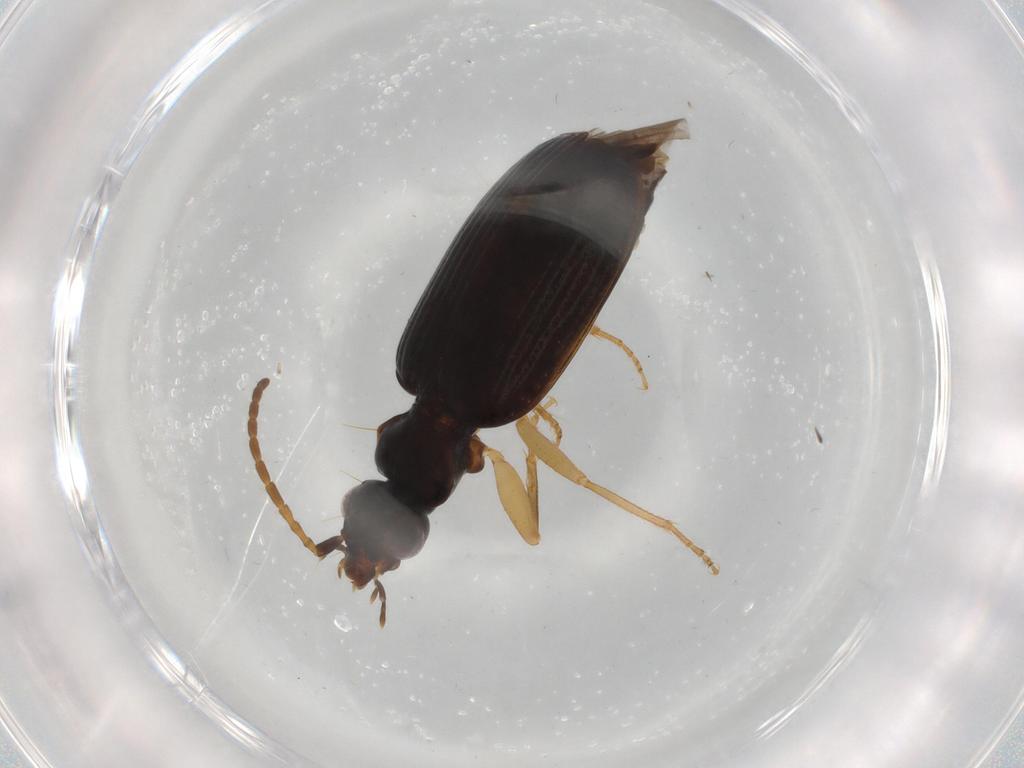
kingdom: Animalia
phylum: Arthropoda
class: Insecta
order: Coleoptera
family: Carabidae
